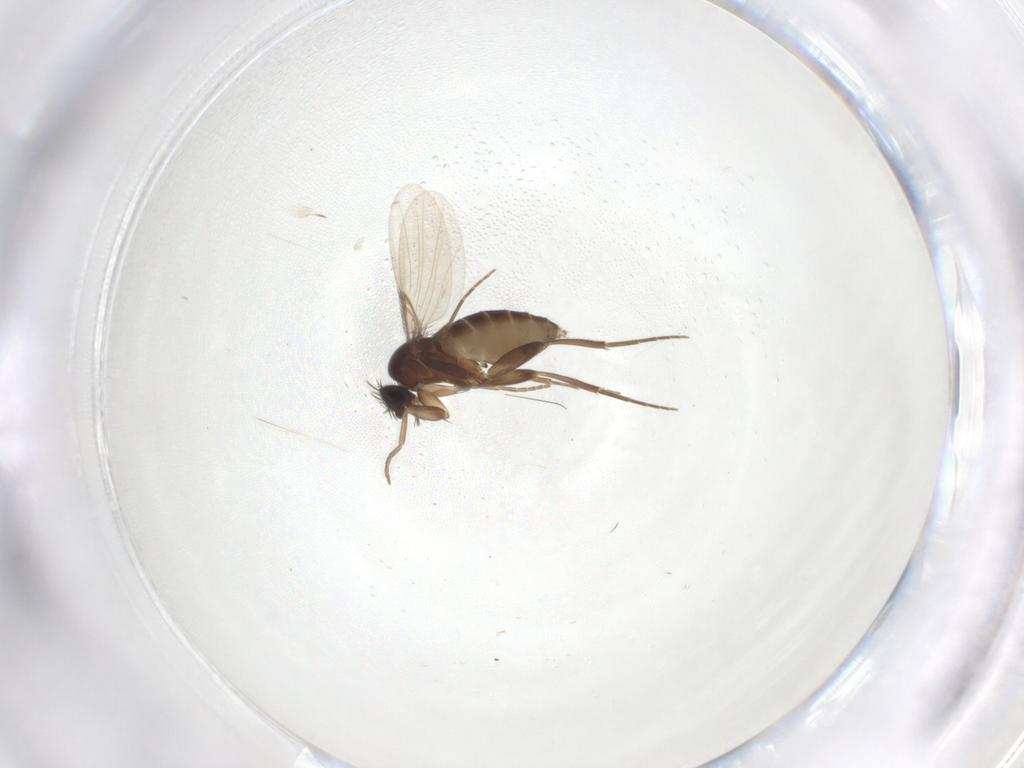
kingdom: Animalia
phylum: Arthropoda
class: Insecta
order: Diptera
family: Phoridae
